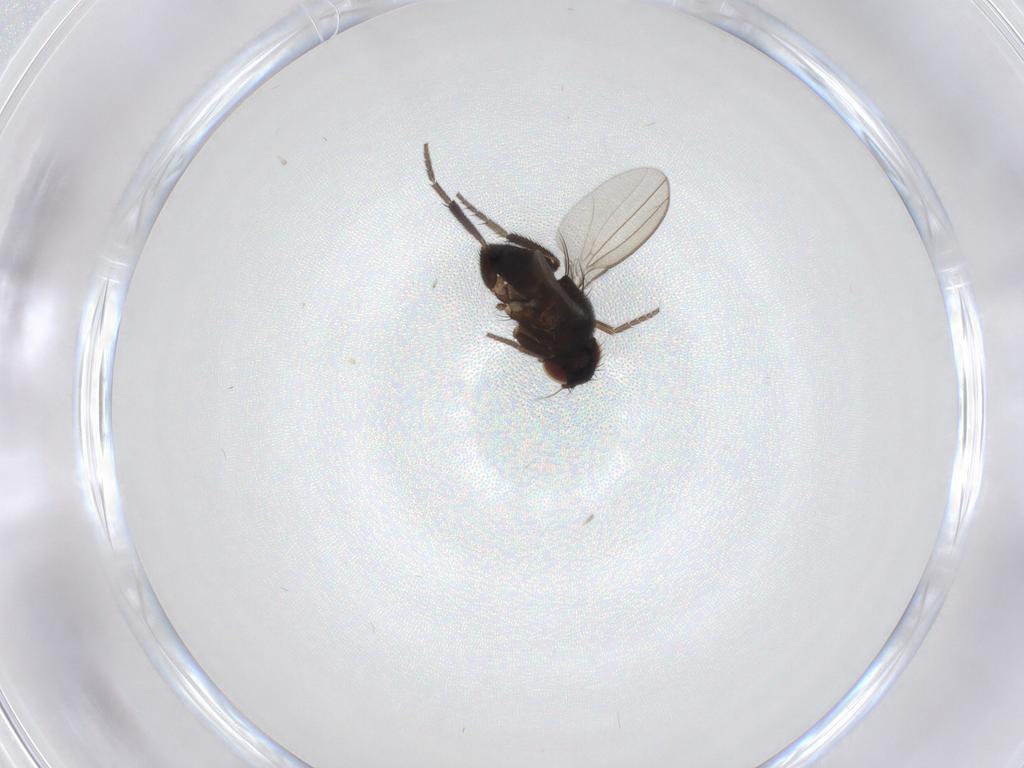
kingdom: Animalia
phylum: Arthropoda
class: Insecta
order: Diptera
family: Milichiidae
